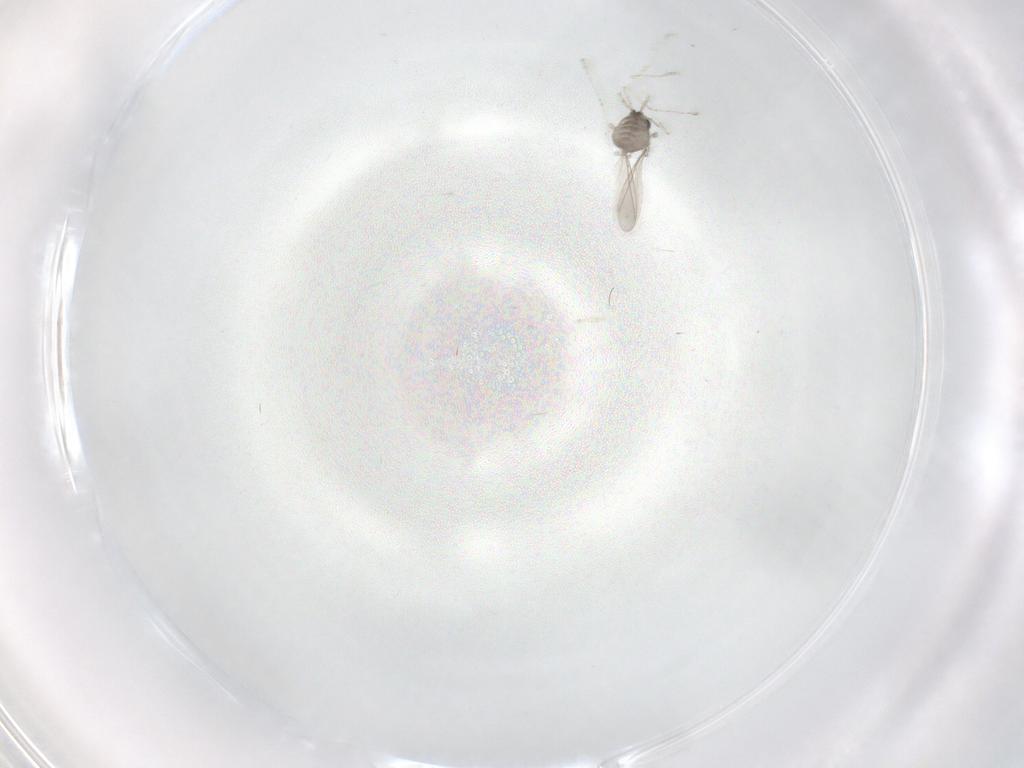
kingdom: Animalia
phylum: Arthropoda
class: Insecta
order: Diptera
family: Cecidomyiidae
